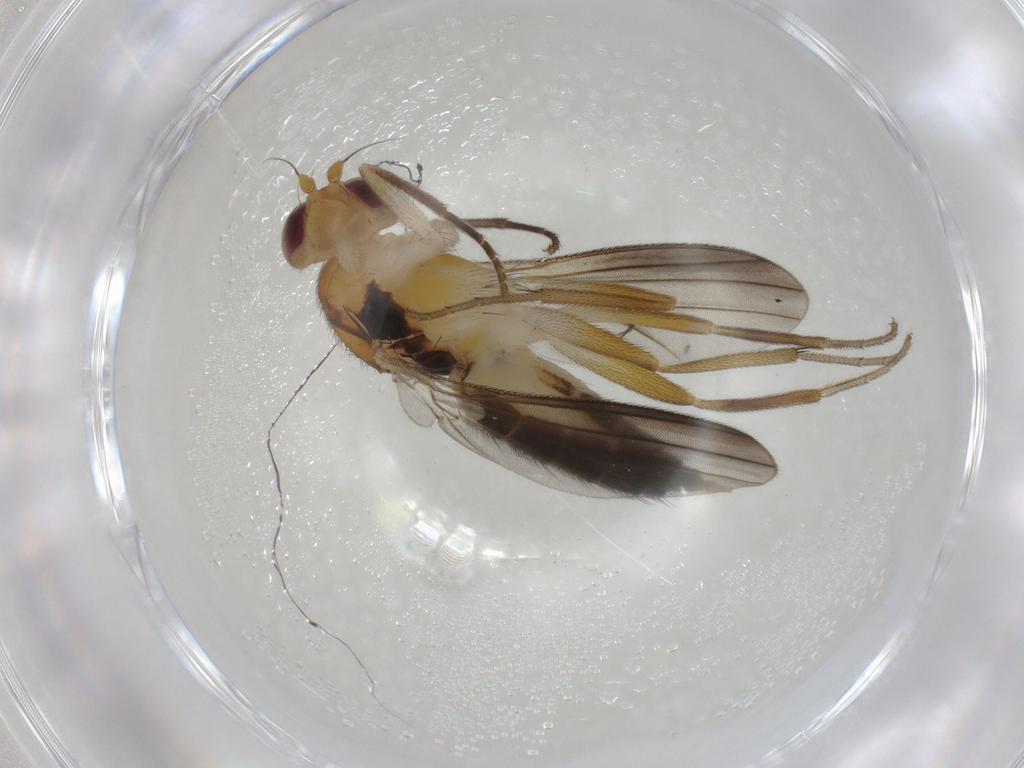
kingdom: Animalia
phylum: Arthropoda
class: Insecta
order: Diptera
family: Clusiidae
